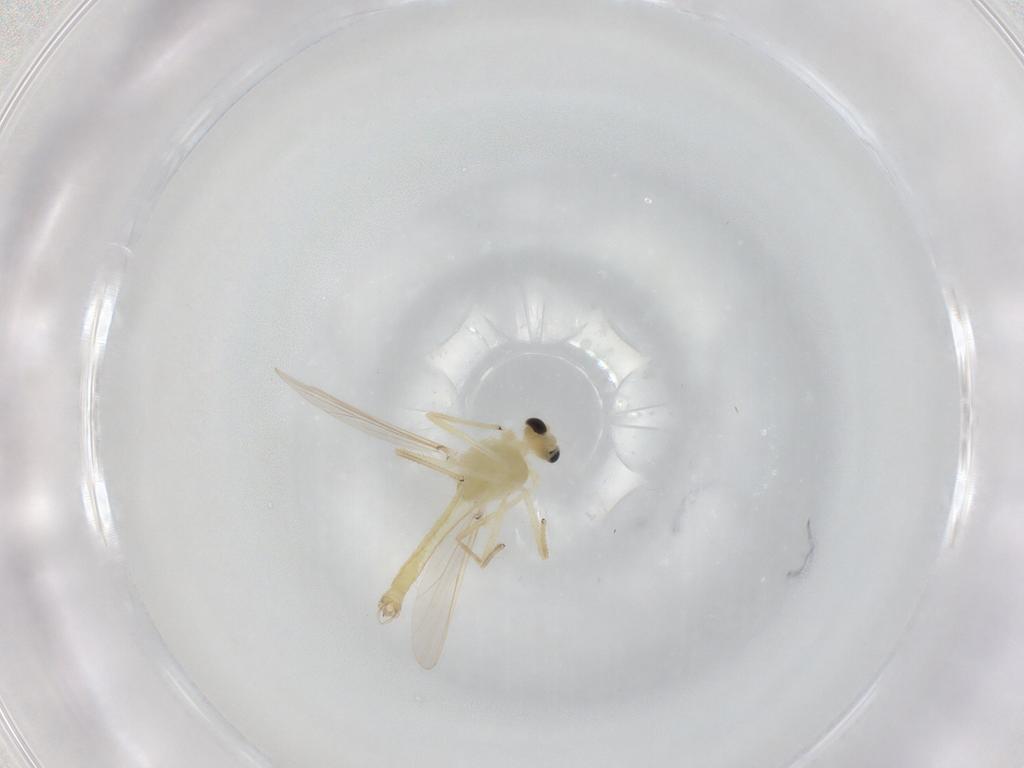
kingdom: Animalia
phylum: Arthropoda
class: Insecta
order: Diptera
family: Chironomidae
